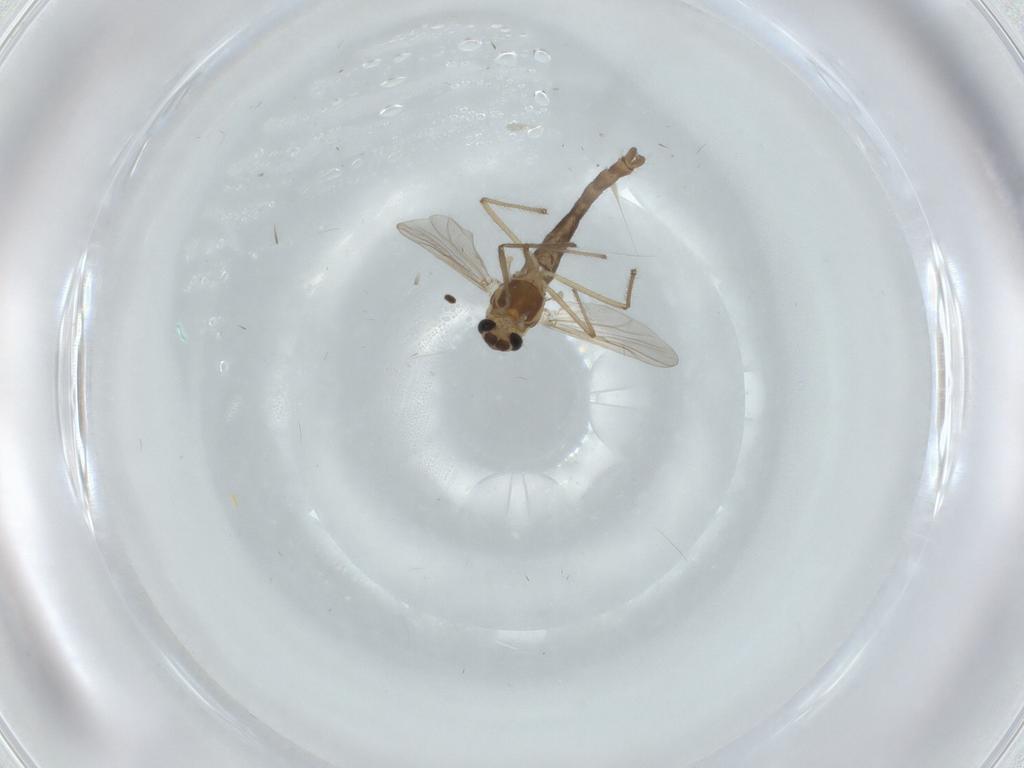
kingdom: Animalia
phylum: Arthropoda
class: Insecta
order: Diptera
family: Chironomidae
